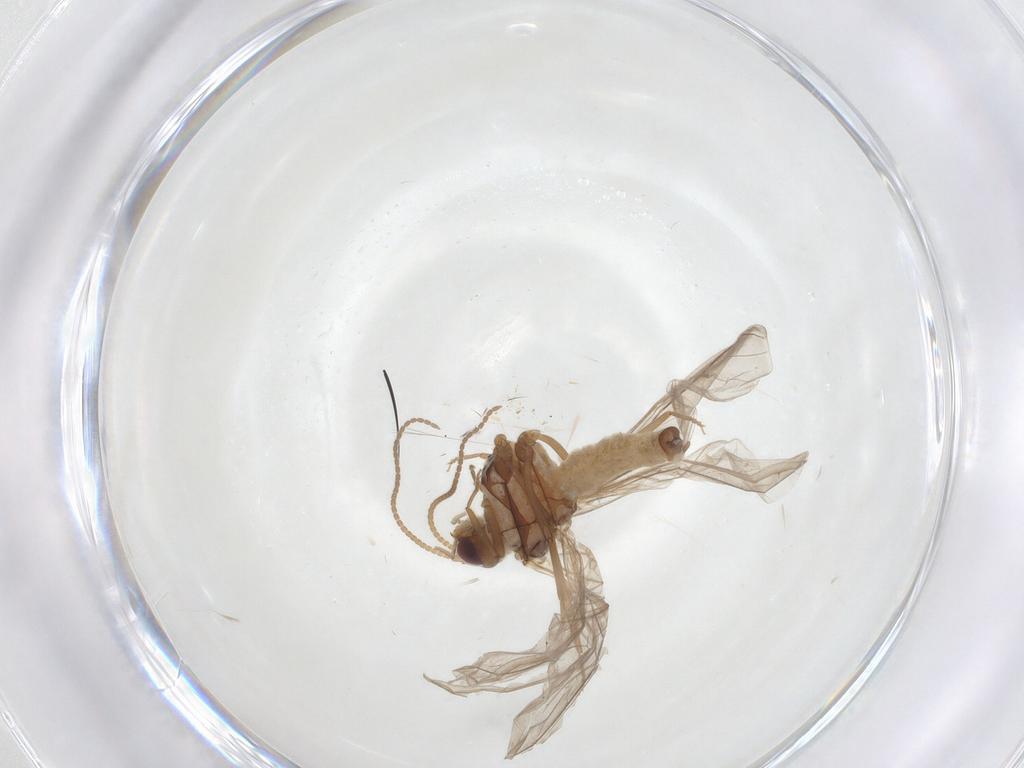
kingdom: Animalia
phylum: Arthropoda
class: Insecta
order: Neuroptera
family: Coniopterygidae
